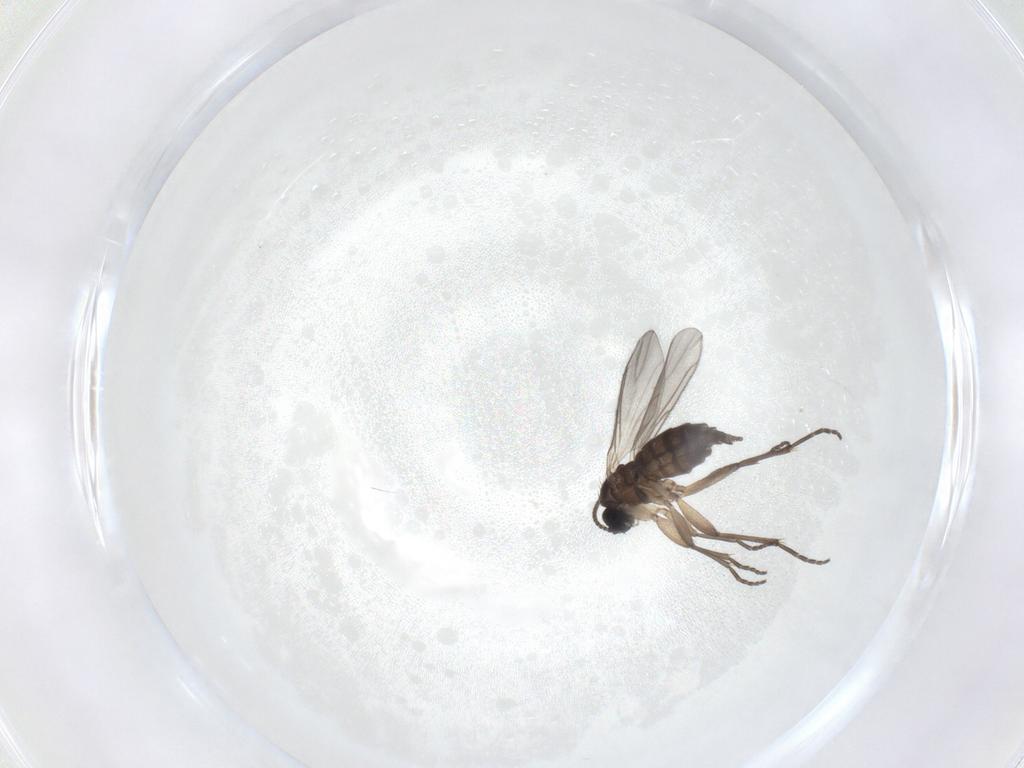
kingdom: Animalia
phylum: Arthropoda
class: Insecta
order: Diptera
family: Sciaridae
